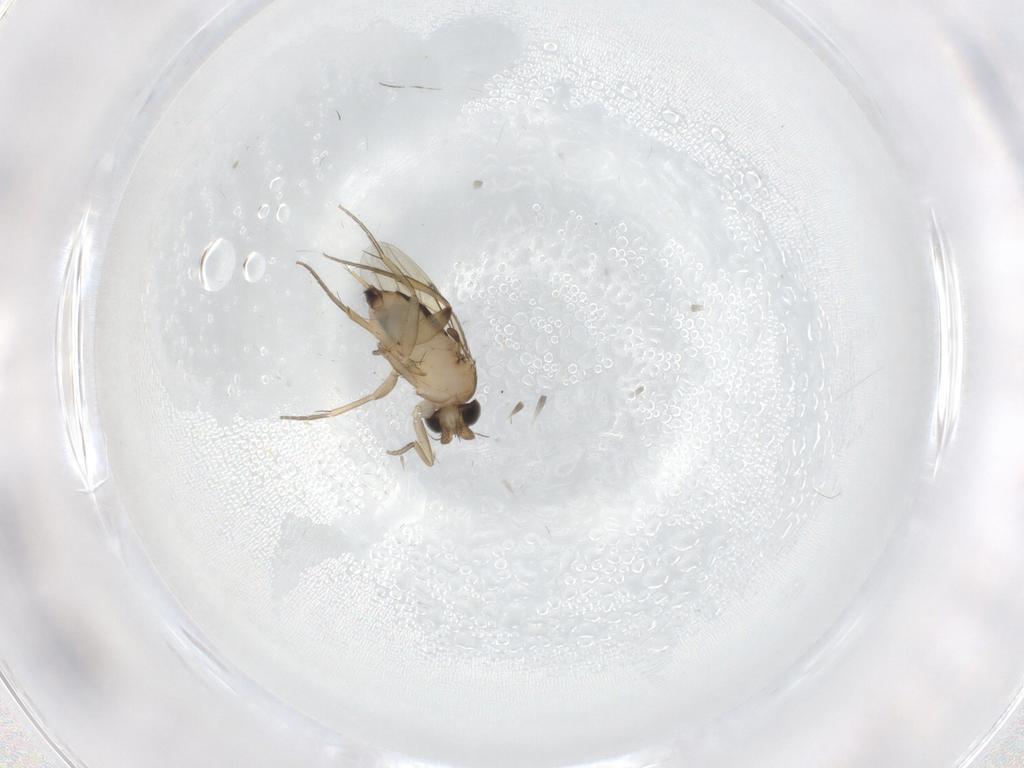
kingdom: Animalia
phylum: Arthropoda
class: Insecta
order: Diptera
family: Phoridae
